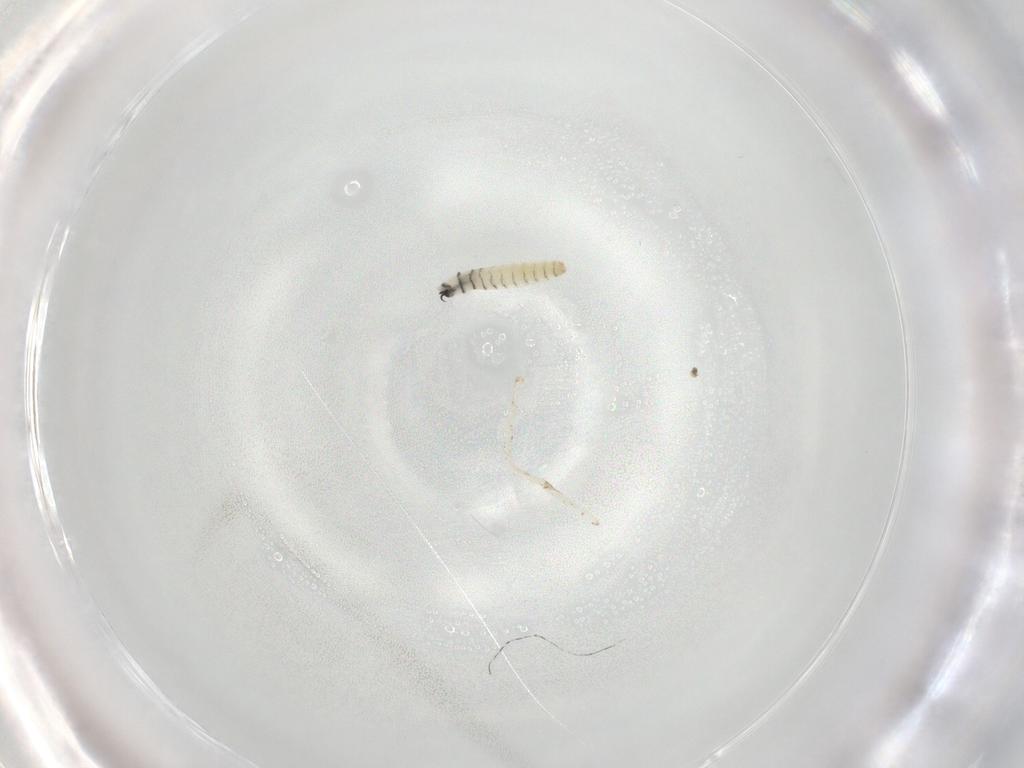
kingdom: Animalia
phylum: Arthropoda
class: Insecta
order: Diptera
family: Sarcophagidae
